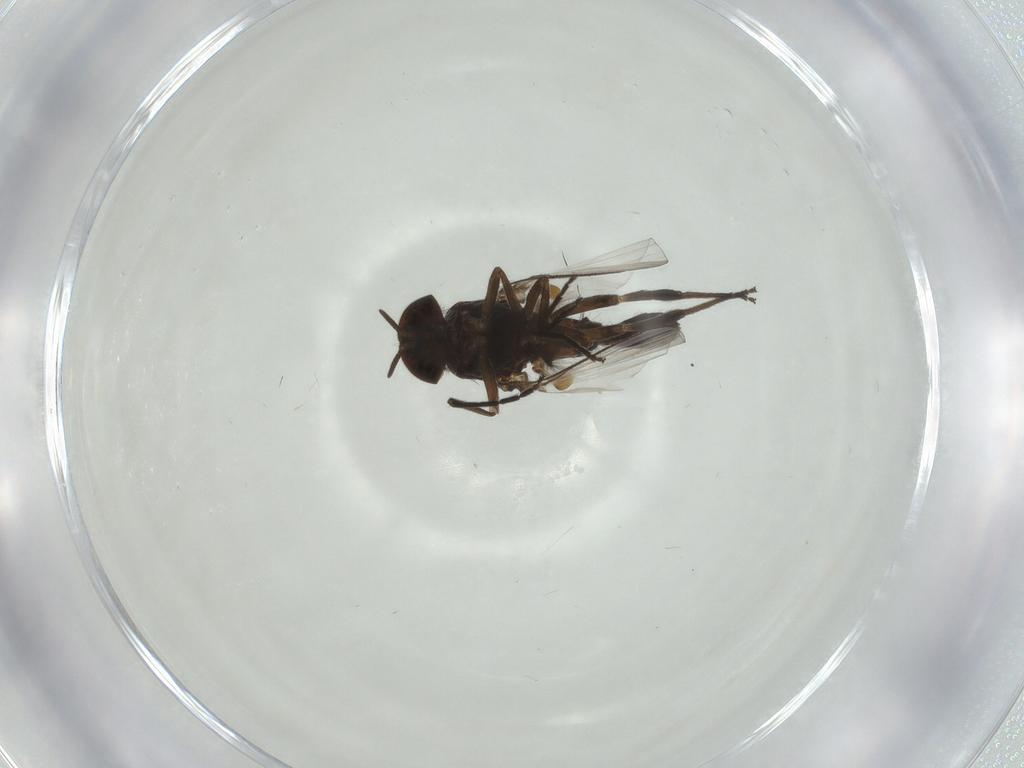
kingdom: Animalia
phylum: Arthropoda
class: Insecta
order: Diptera
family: Simuliidae
